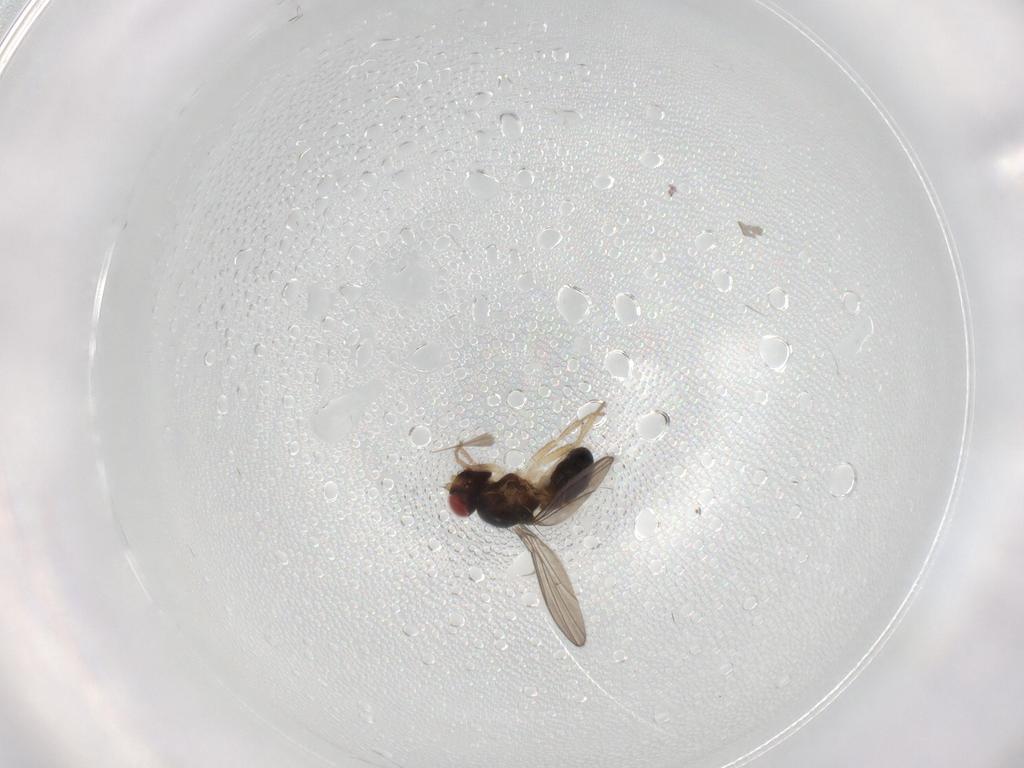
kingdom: Animalia
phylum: Arthropoda
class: Insecta
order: Diptera
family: Drosophilidae
